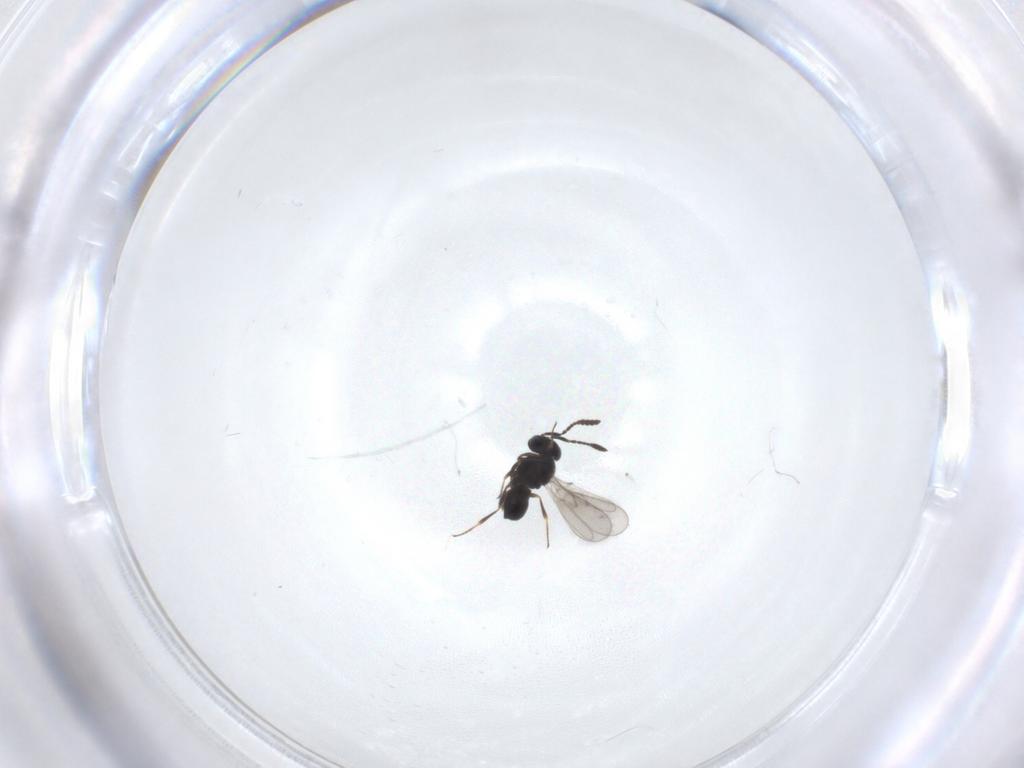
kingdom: Animalia
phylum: Arthropoda
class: Insecta
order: Hymenoptera
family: Scelionidae
